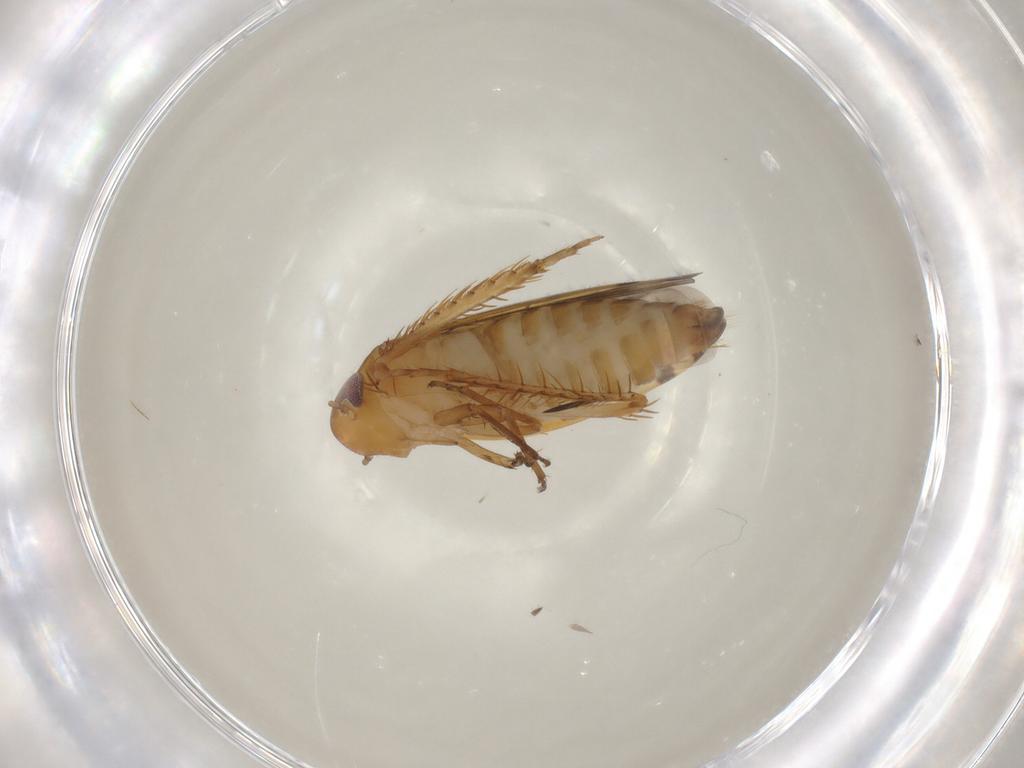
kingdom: Animalia
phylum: Arthropoda
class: Insecta
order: Hemiptera
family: Cicadellidae
